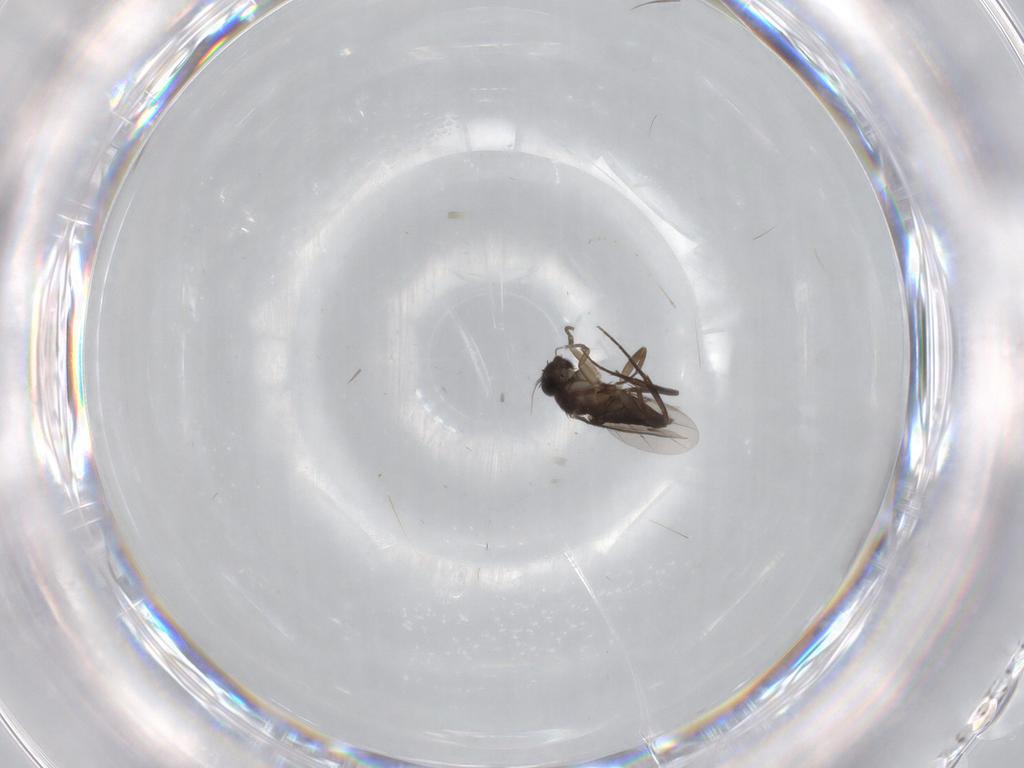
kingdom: Animalia
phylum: Arthropoda
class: Insecta
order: Diptera
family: Phoridae
